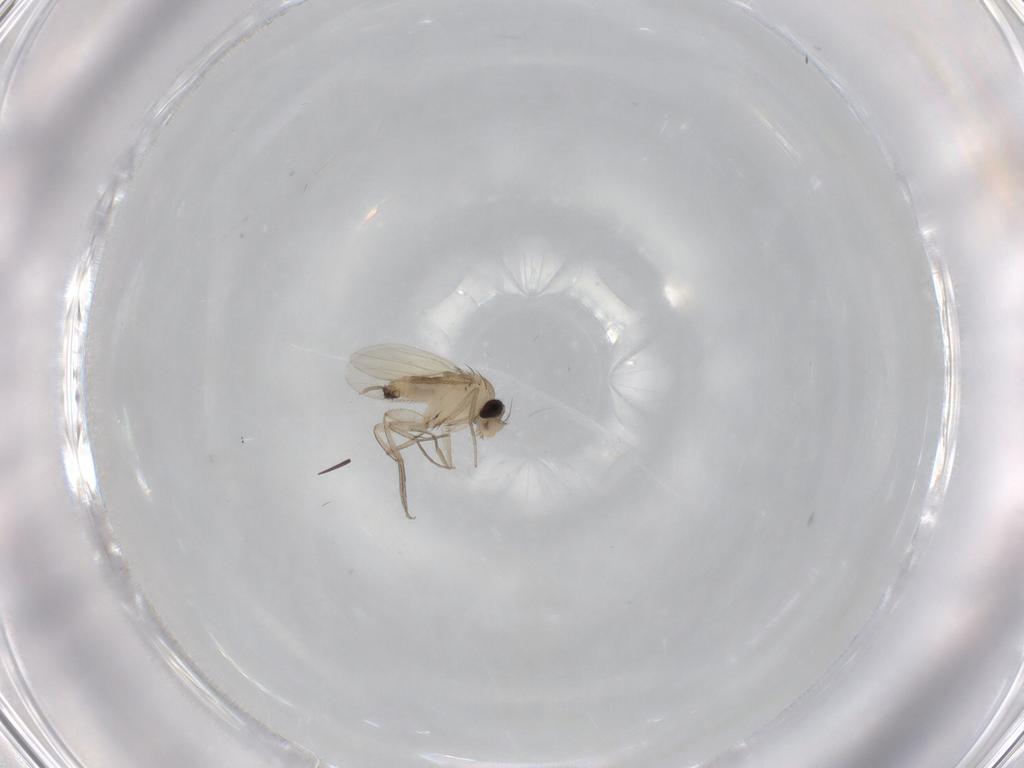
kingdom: Animalia
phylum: Arthropoda
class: Insecta
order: Diptera
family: Phoridae
